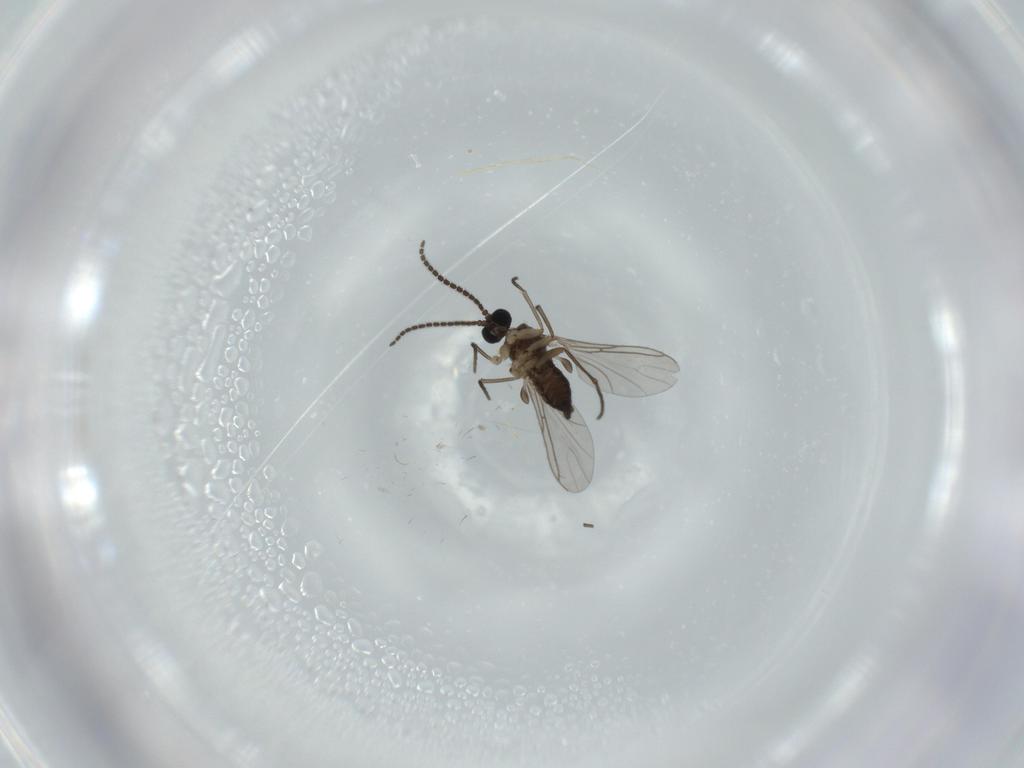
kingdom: Animalia
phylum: Arthropoda
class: Insecta
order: Diptera
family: Sciaridae
